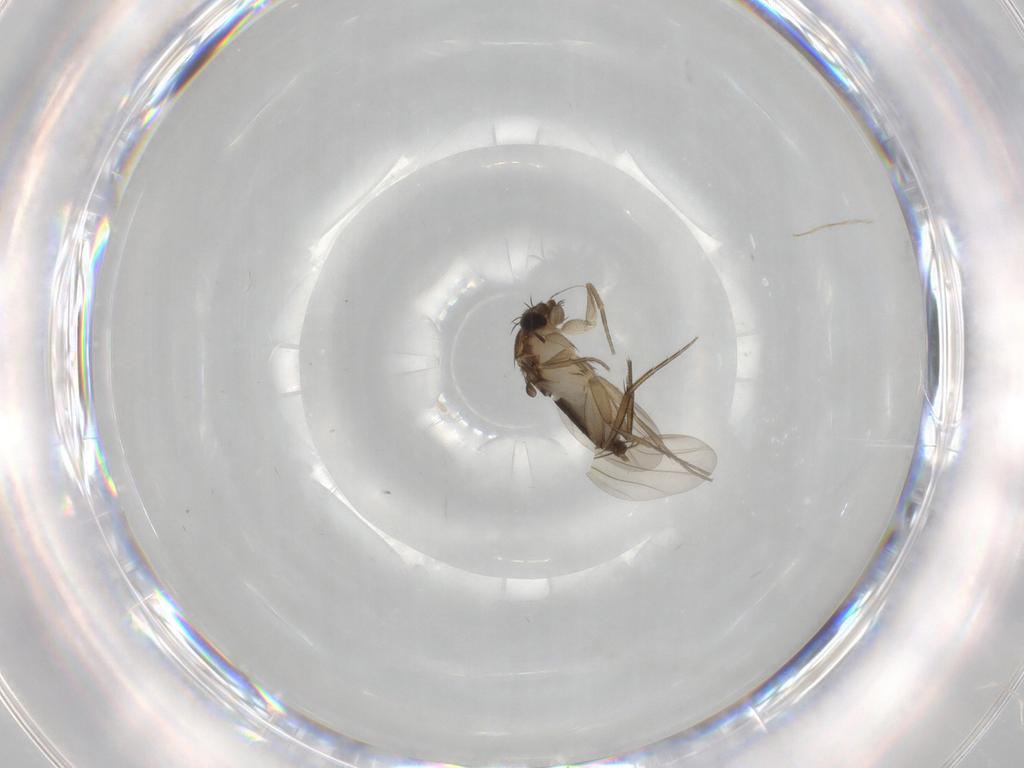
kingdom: Animalia
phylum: Arthropoda
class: Insecta
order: Diptera
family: Phoridae
